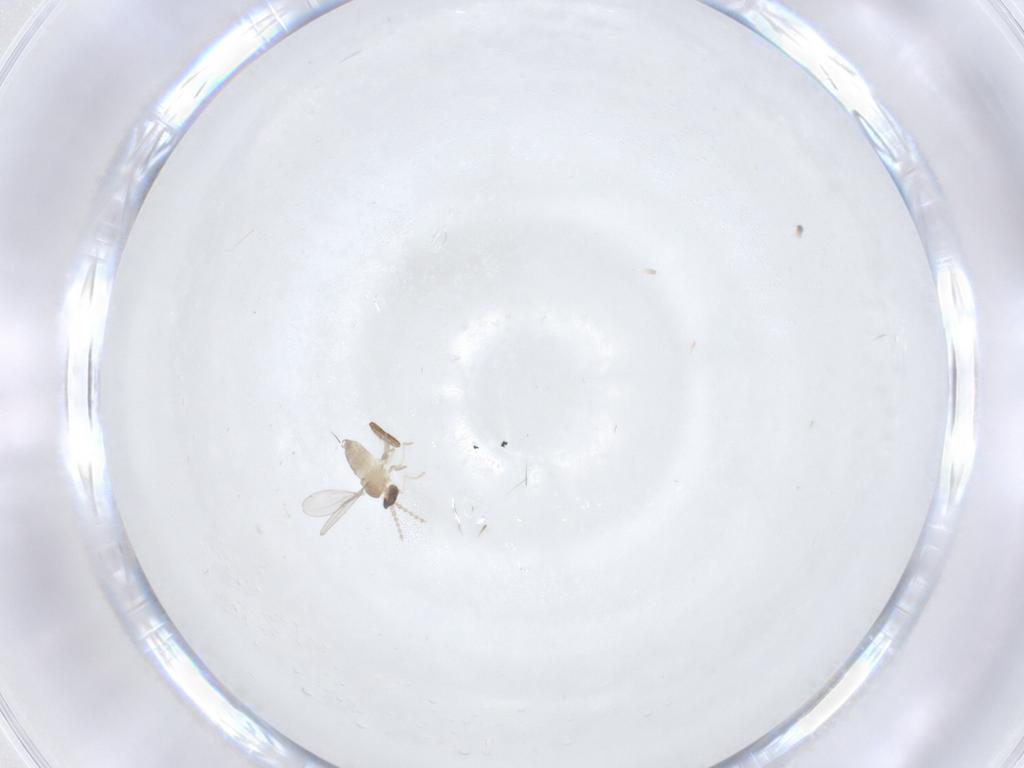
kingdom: Animalia
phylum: Arthropoda
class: Insecta
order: Diptera
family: Cecidomyiidae
